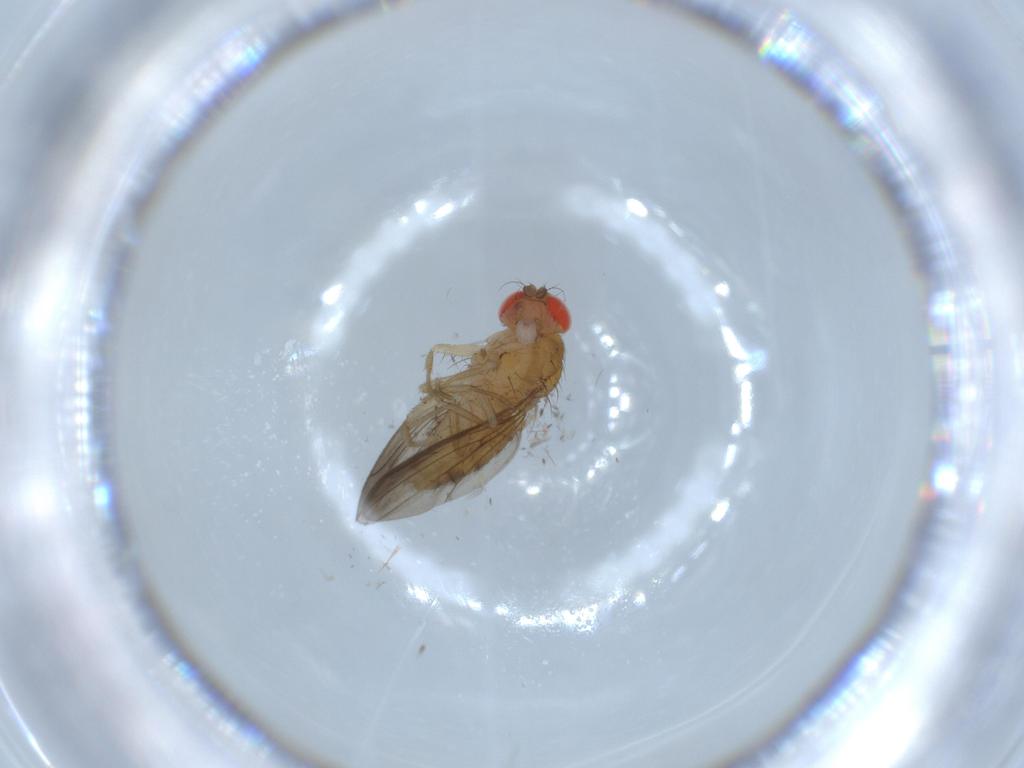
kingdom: Animalia
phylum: Arthropoda
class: Insecta
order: Diptera
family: Drosophilidae
